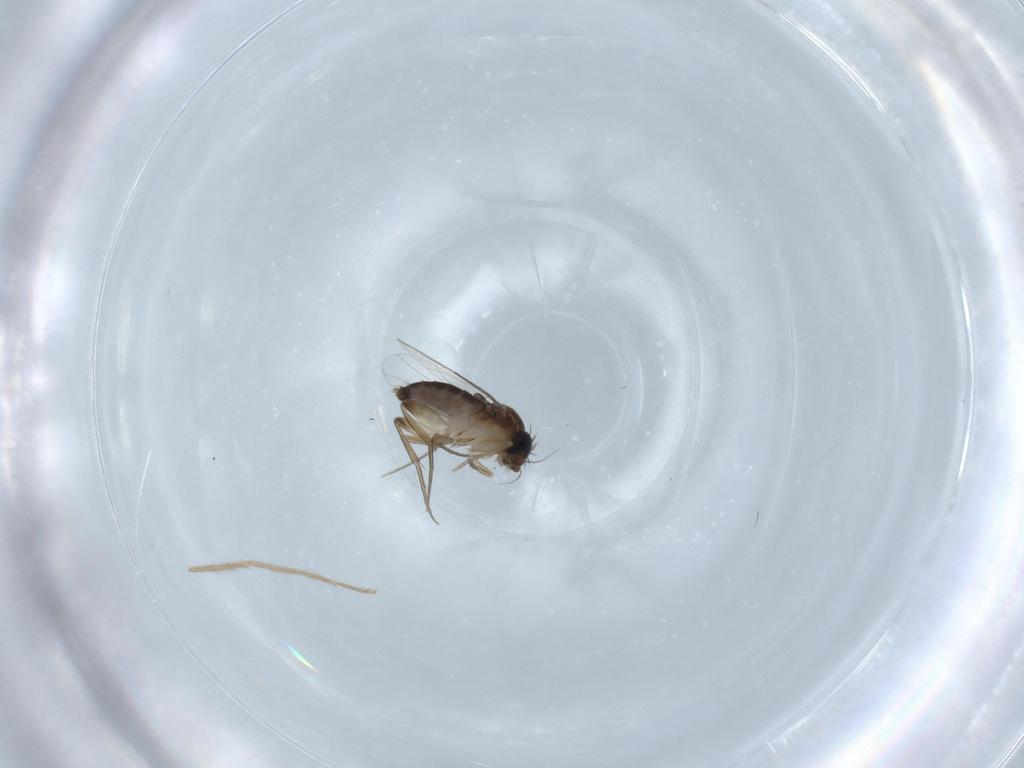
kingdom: Animalia
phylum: Arthropoda
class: Insecta
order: Diptera
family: Phoridae
